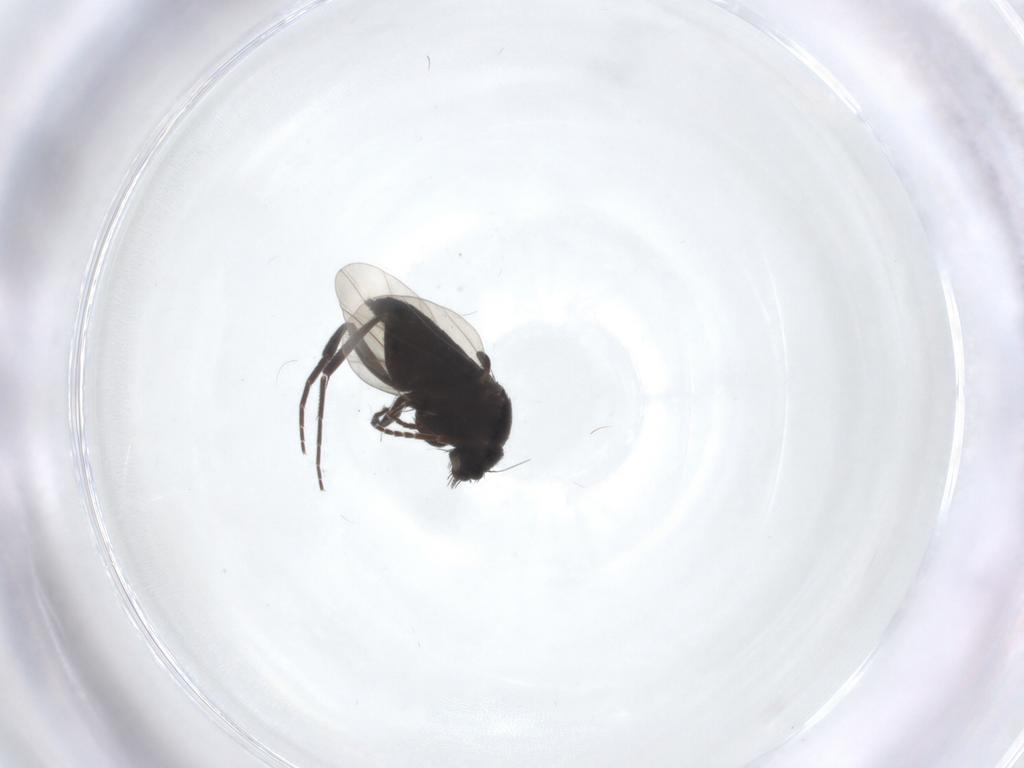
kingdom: Animalia
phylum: Arthropoda
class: Insecta
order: Diptera
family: Phoridae
